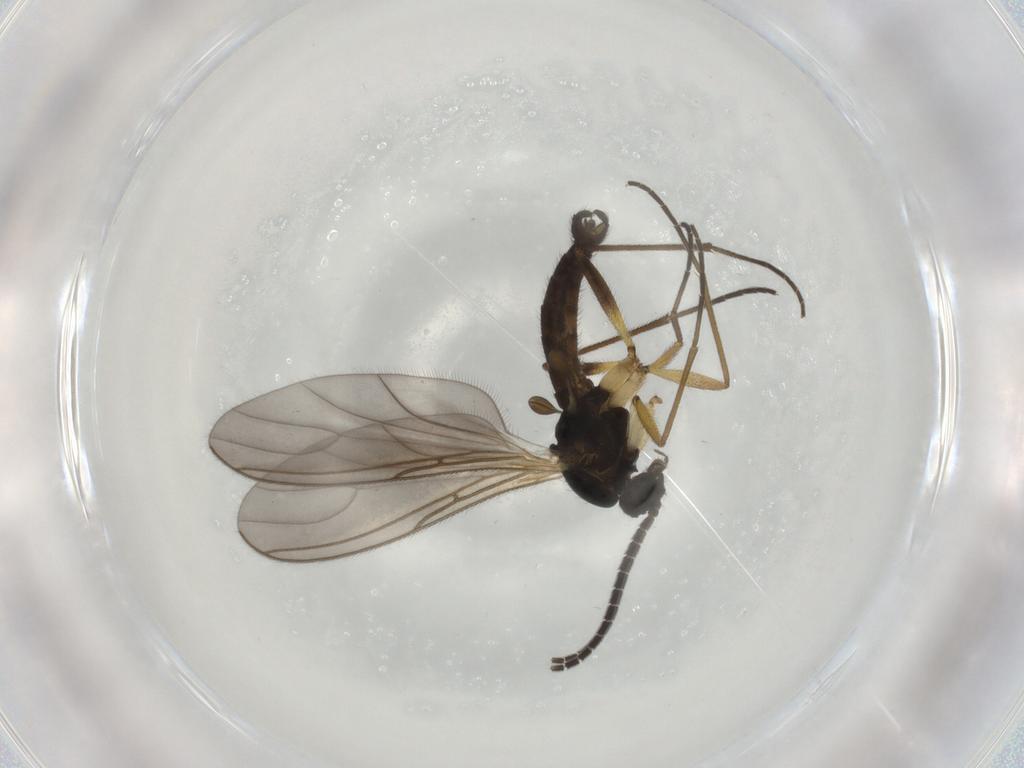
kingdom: Animalia
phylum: Arthropoda
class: Insecta
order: Diptera
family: Sciaridae
